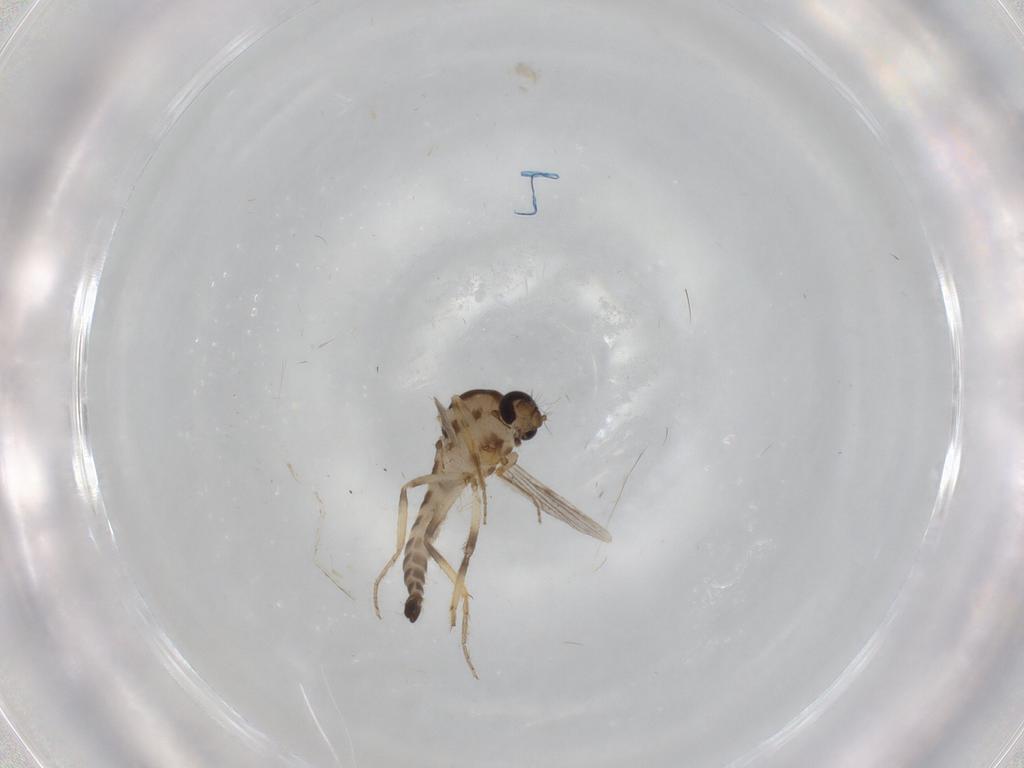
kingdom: Animalia
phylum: Arthropoda
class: Insecta
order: Diptera
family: Ceratopogonidae
